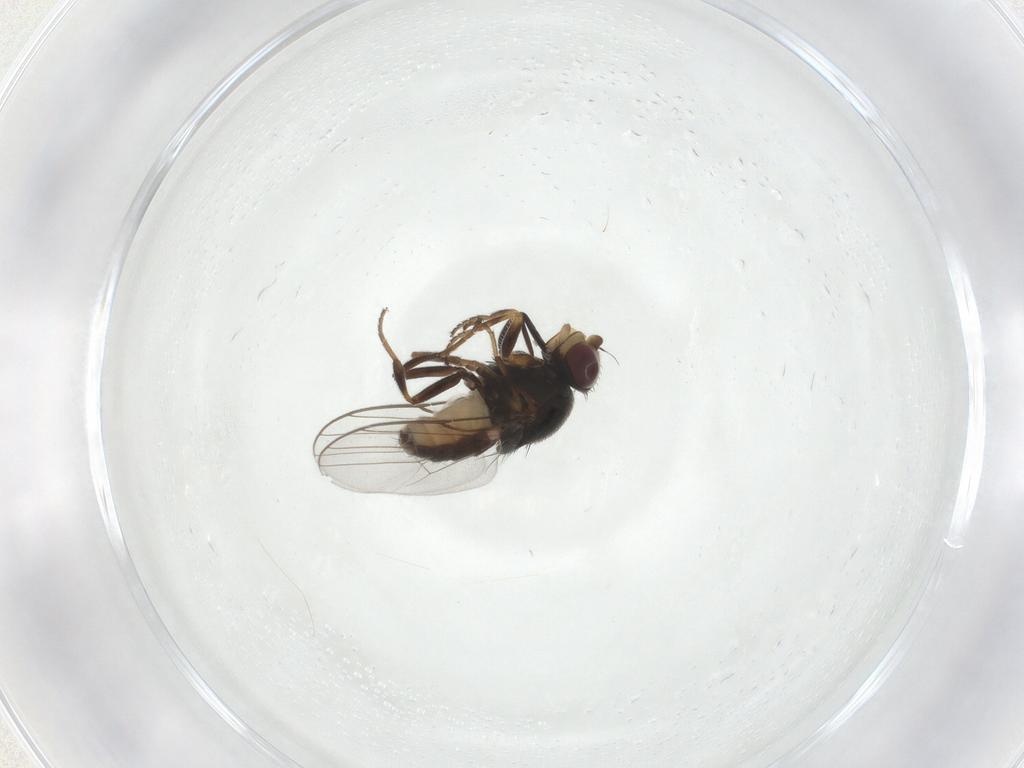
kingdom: Animalia
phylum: Arthropoda
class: Insecta
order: Diptera
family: Chloropidae
